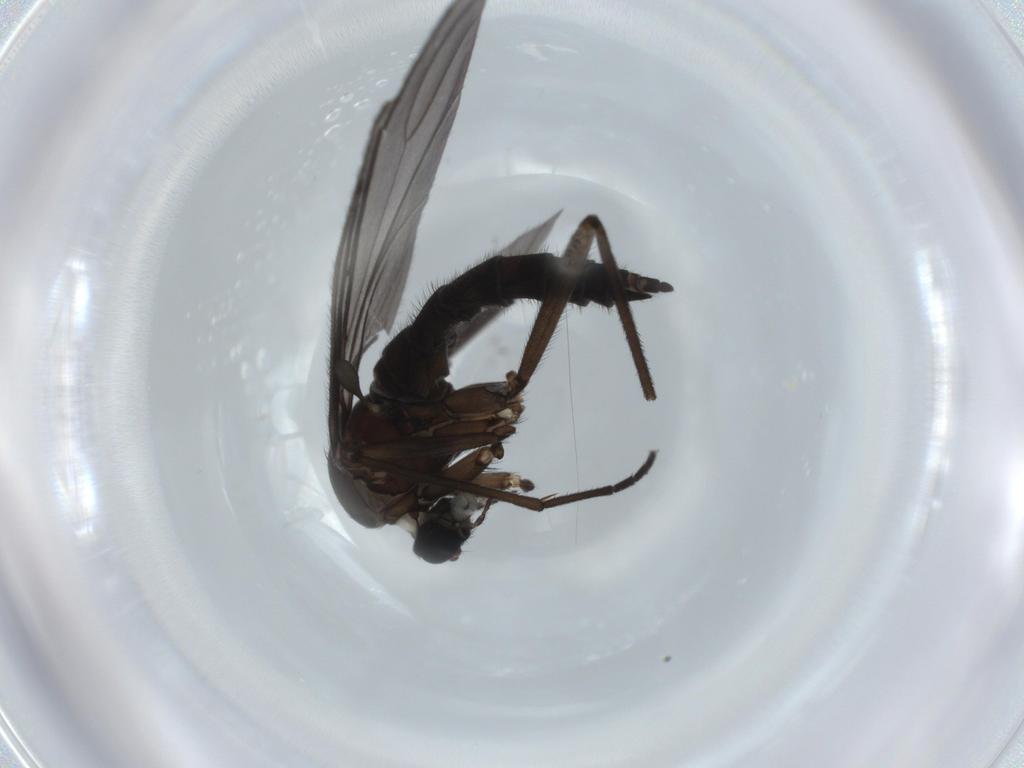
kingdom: Animalia
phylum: Arthropoda
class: Insecta
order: Diptera
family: Sciaridae
